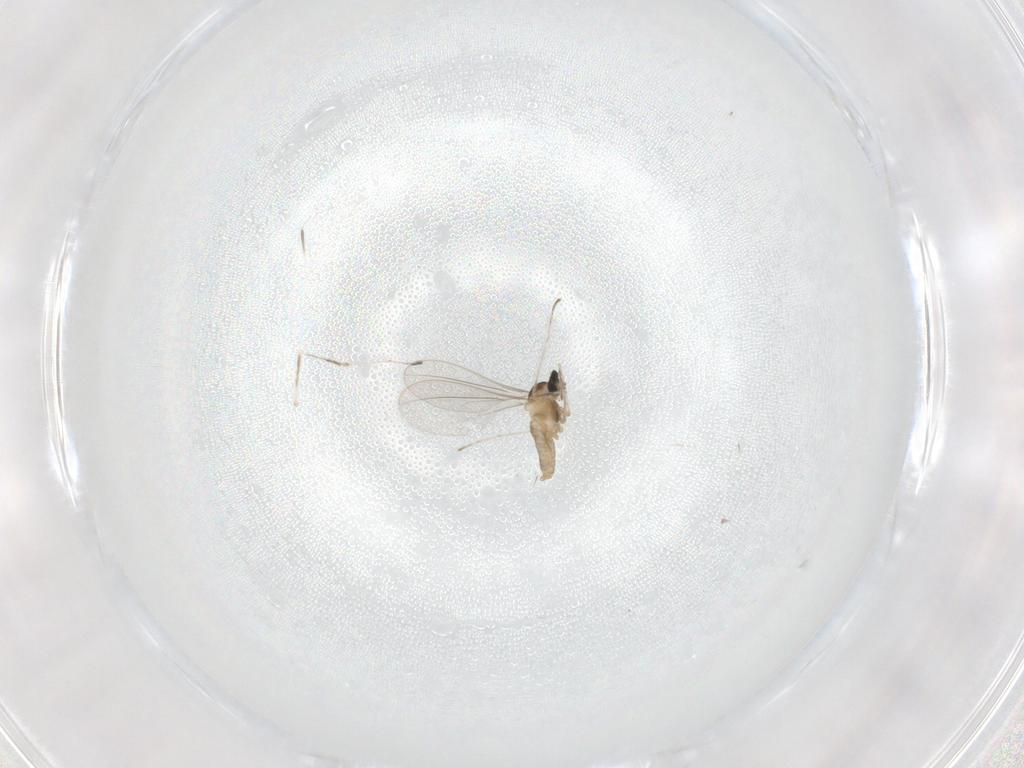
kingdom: Animalia
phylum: Arthropoda
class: Insecta
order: Diptera
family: Cecidomyiidae
